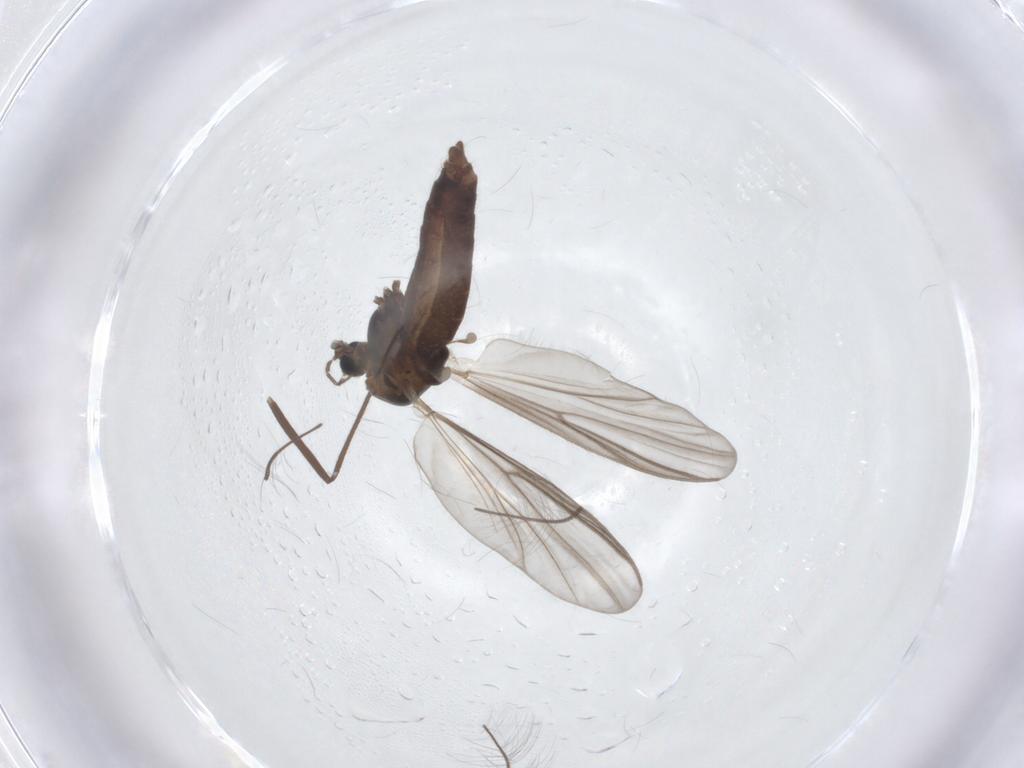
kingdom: Animalia
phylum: Arthropoda
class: Insecta
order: Diptera
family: Chironomidae
